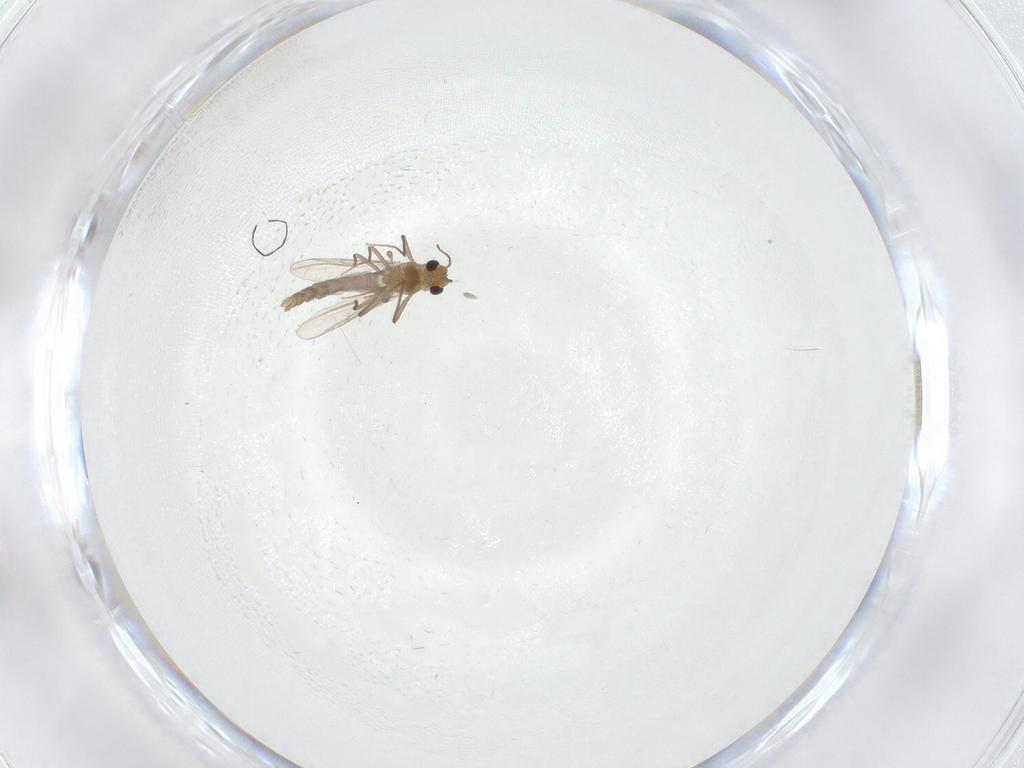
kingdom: Animalia
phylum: Arthropoda
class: Insecta
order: Diptera
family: Chironomidae
